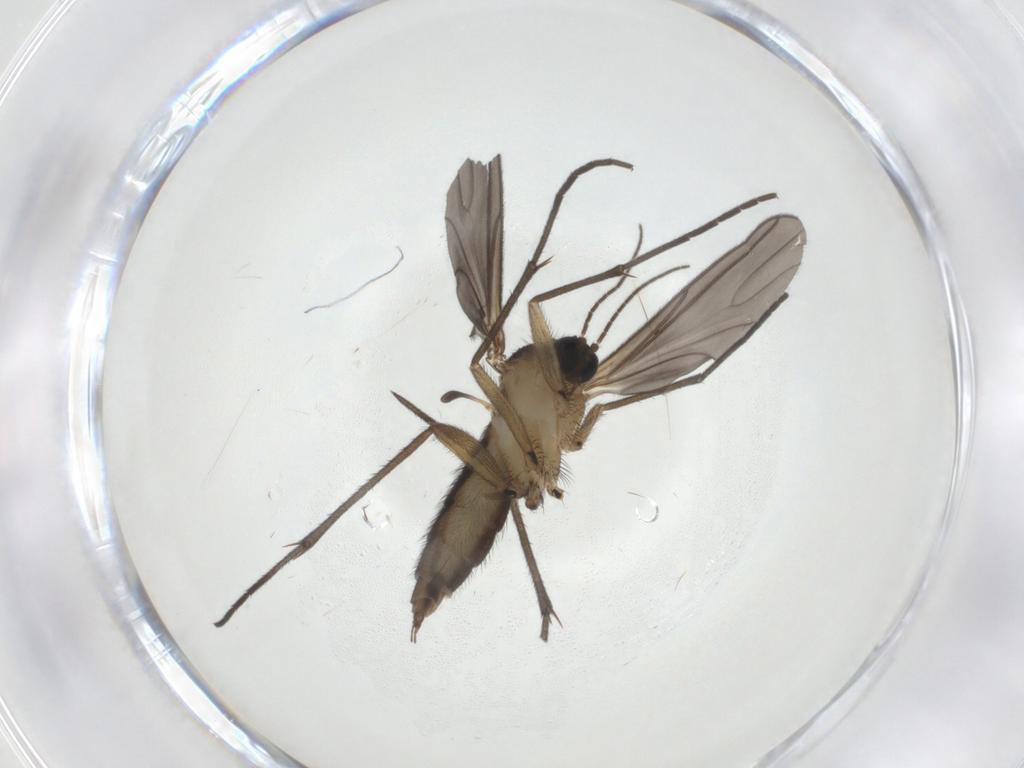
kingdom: Animalia
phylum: Arthropoda
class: Insecta
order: Diptera
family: Sciaridae
